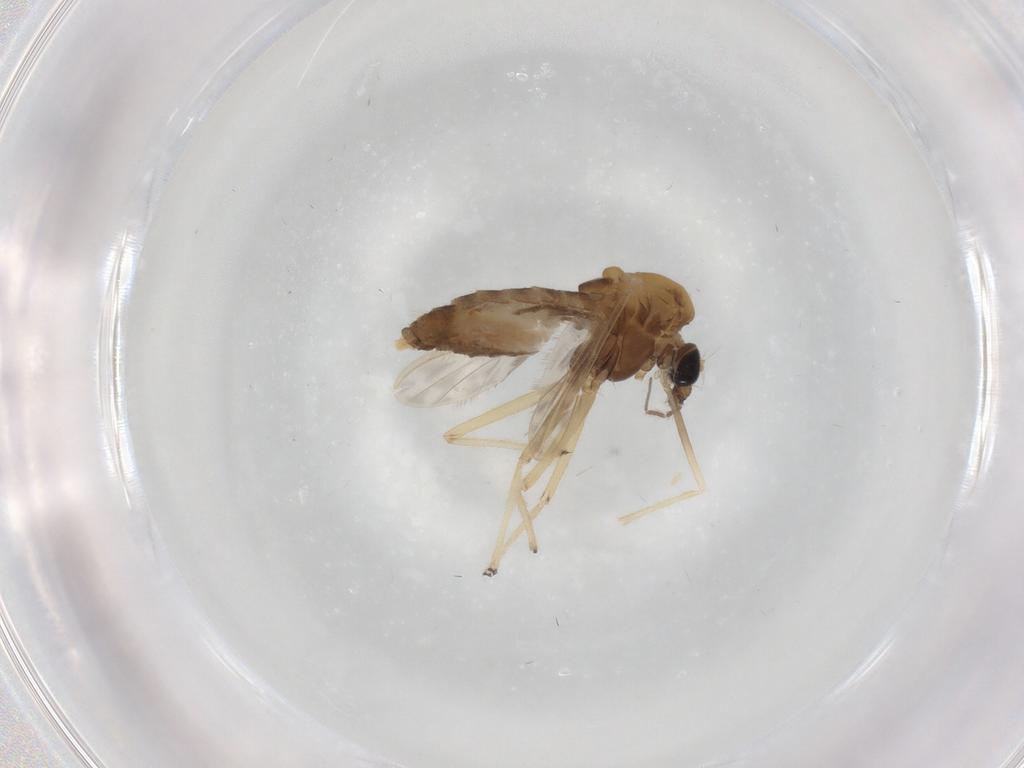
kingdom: Animalia
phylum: Arthropoda
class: Insecta
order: Diptera
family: Chironomidae
